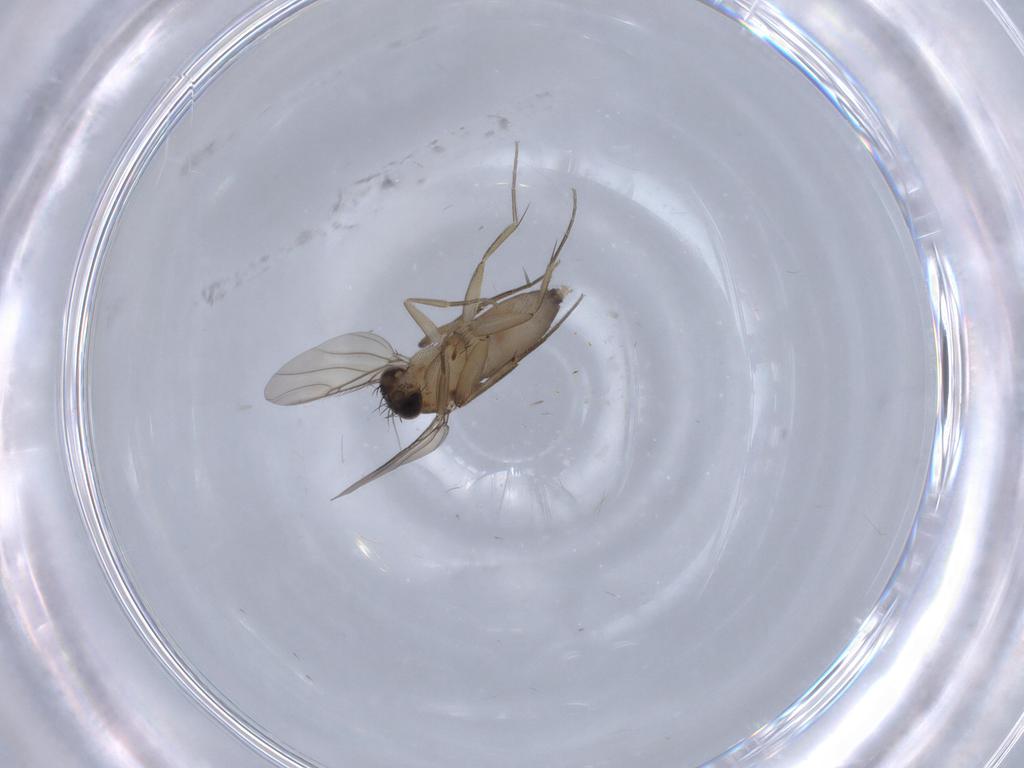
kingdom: Animalia
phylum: Arthropoda
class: Insecta
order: Diptera
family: Phoridae
